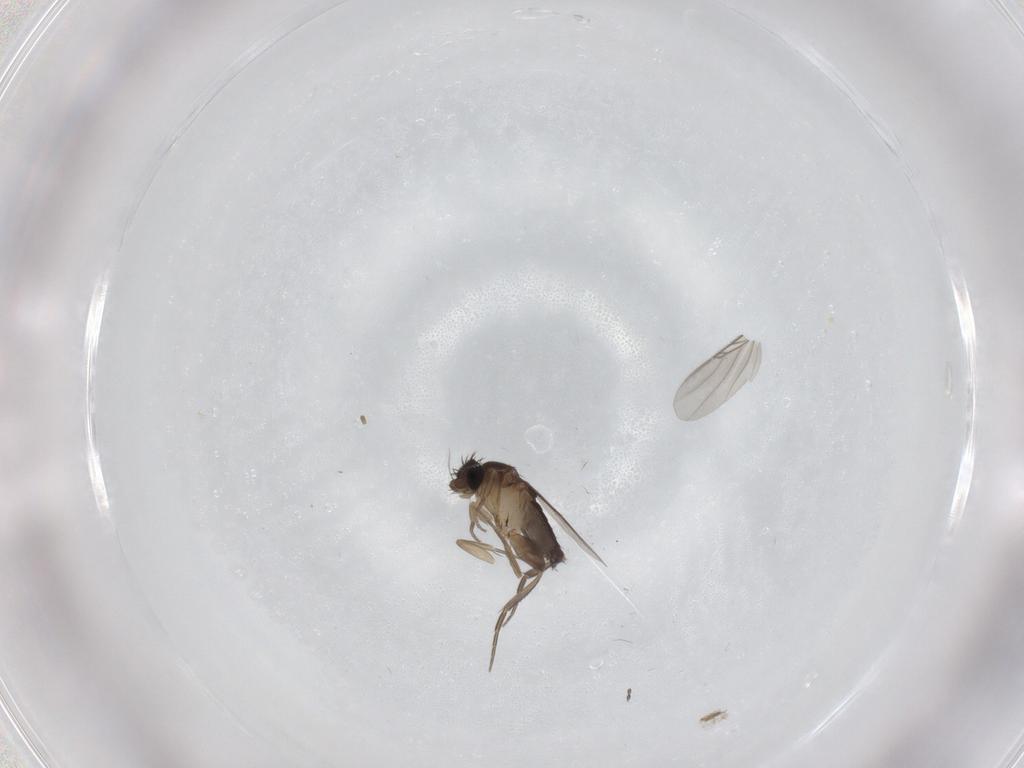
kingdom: Animalia
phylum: Arthropoda
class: Insecta
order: Diptera
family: Phoridae
